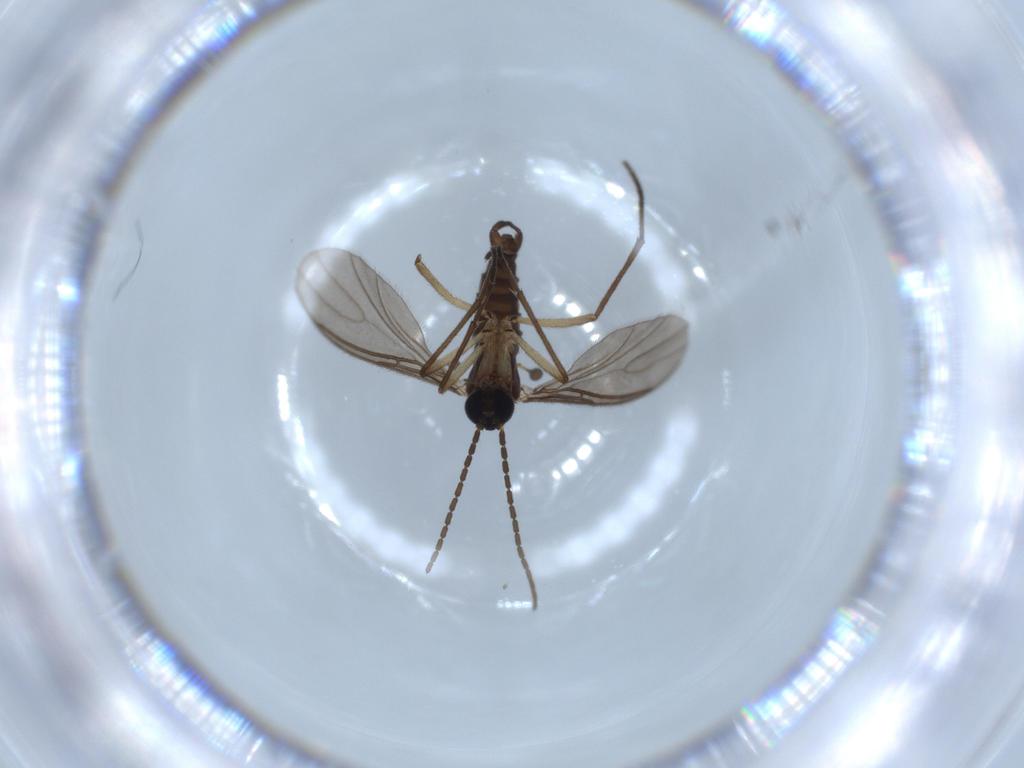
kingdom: Animalia
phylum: Arthropoda
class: Insecta
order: Diptera
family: Sciaridae
